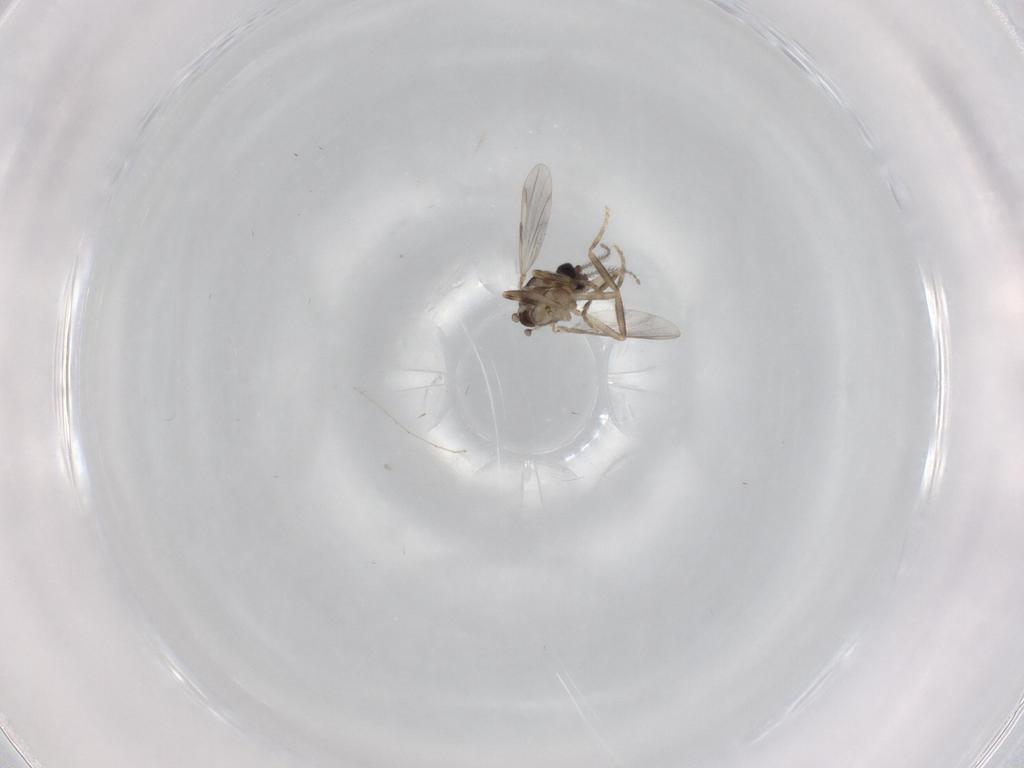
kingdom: Animalia
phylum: Arthropoda
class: Insecta
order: Diptera
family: Ceratopogonidae
